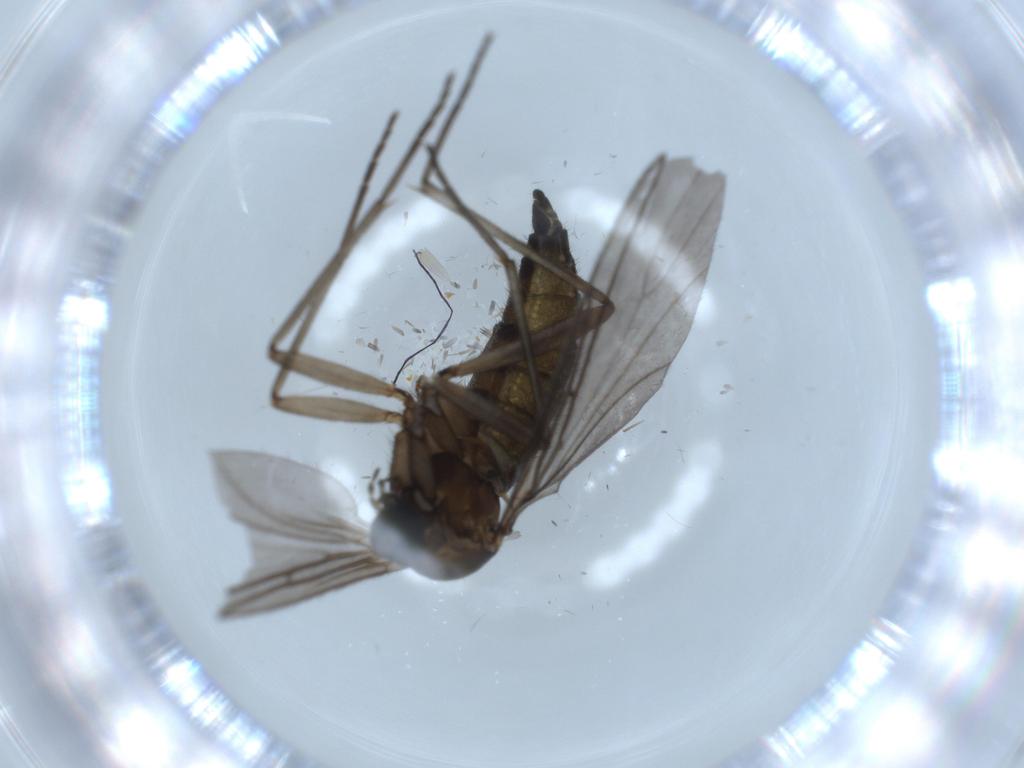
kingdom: Animalia
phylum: Arthropoda
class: Insecta
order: Diptera
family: Sciaridae
